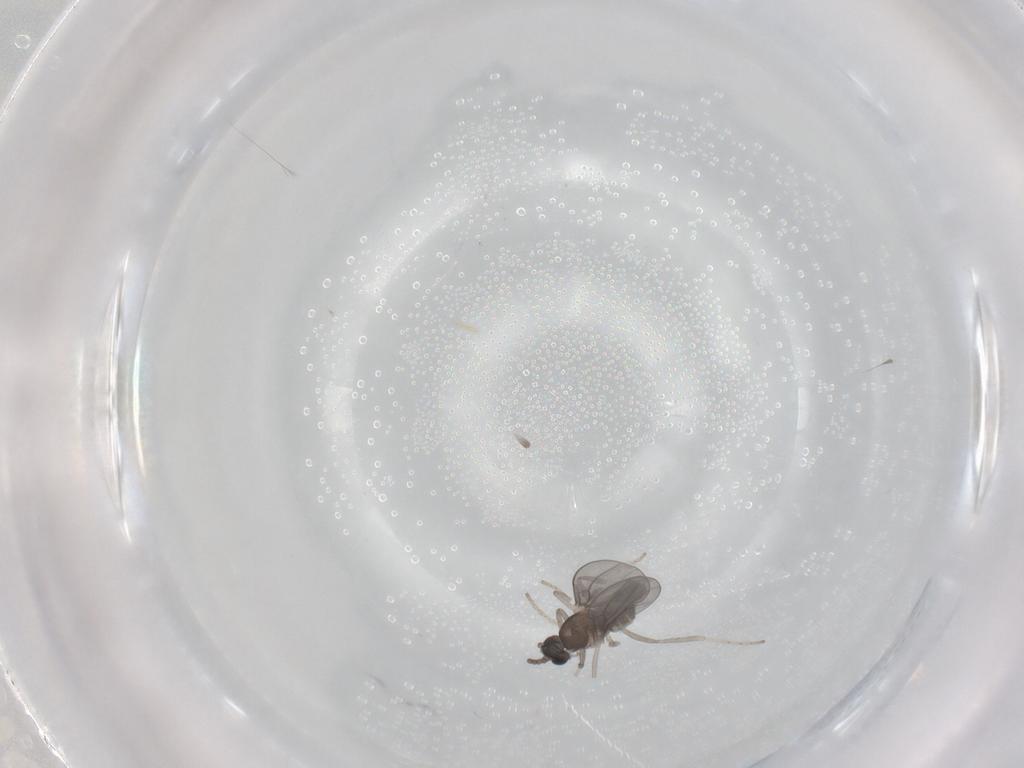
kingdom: Animalia
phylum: Arthropoda
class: Insecta
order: Diptera
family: Cecidomyiidae
